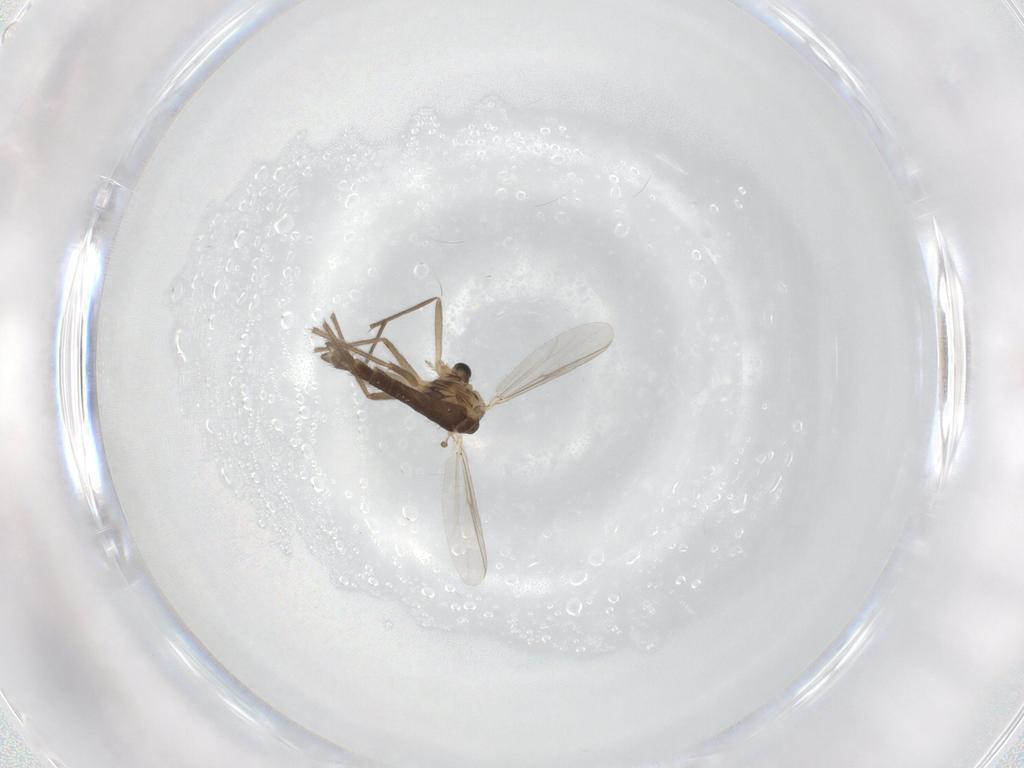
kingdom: Animalia
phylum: Arthropoda
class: Insecta
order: Diptera
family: Chironomidae
